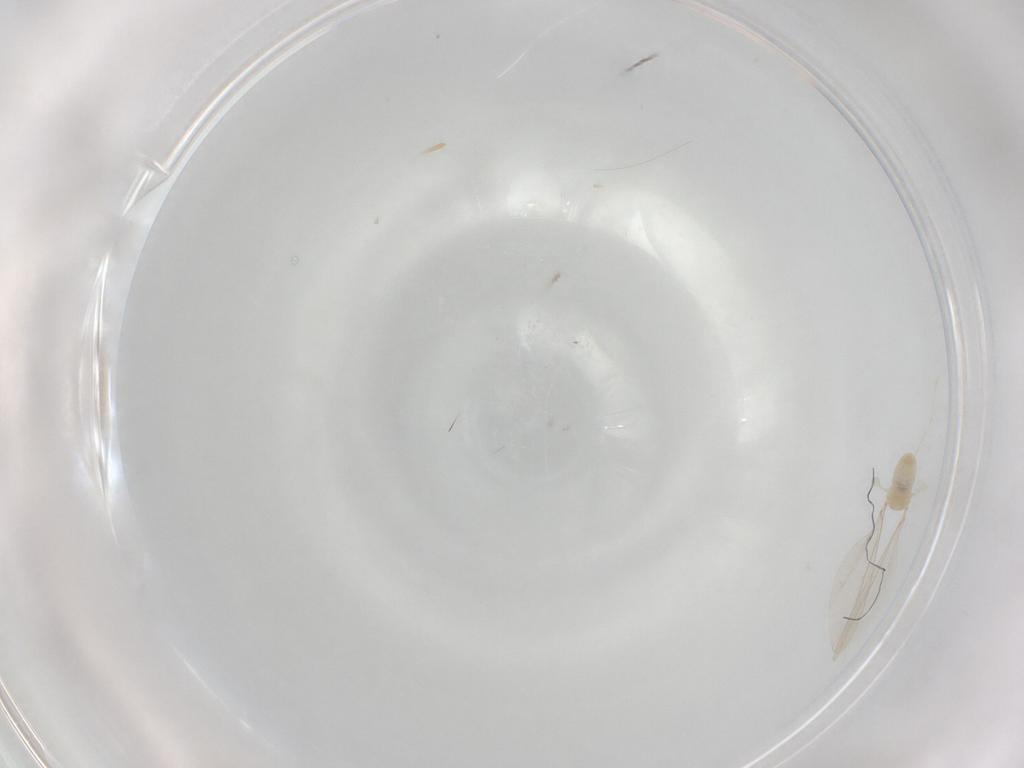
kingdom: Animalia
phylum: Arthropoda
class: Insecta
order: Diptera
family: Cecidomyiidae
